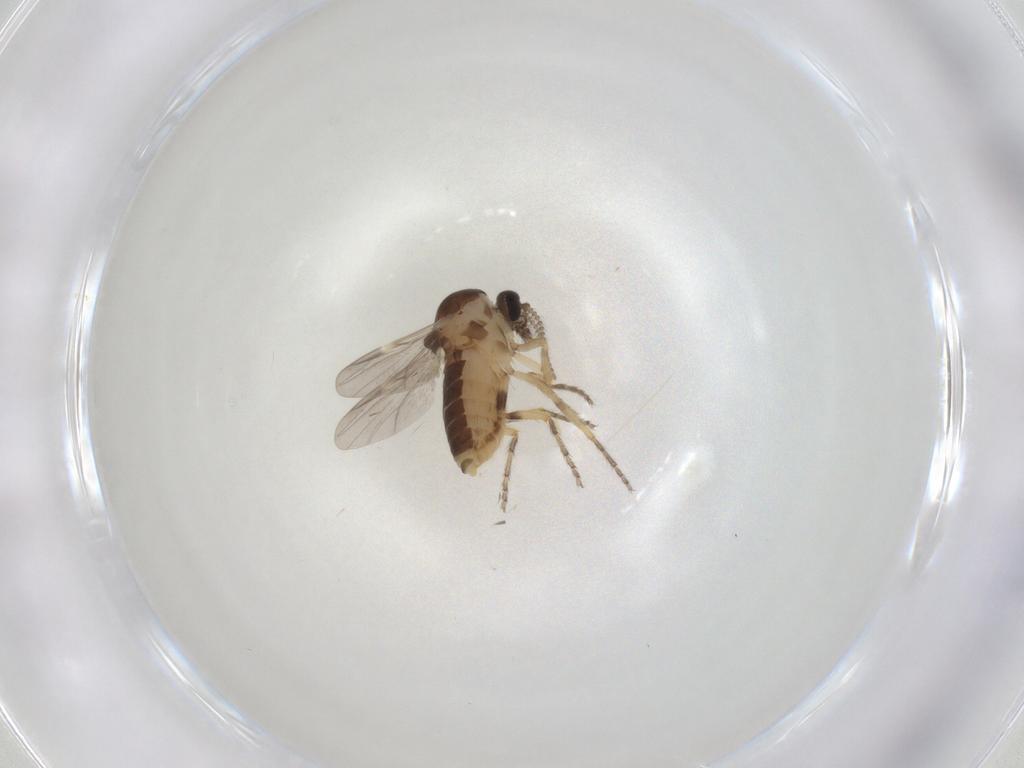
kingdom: Animalia
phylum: Arthropoda
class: Insecta
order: Diptera
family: Ceratopogonidae
